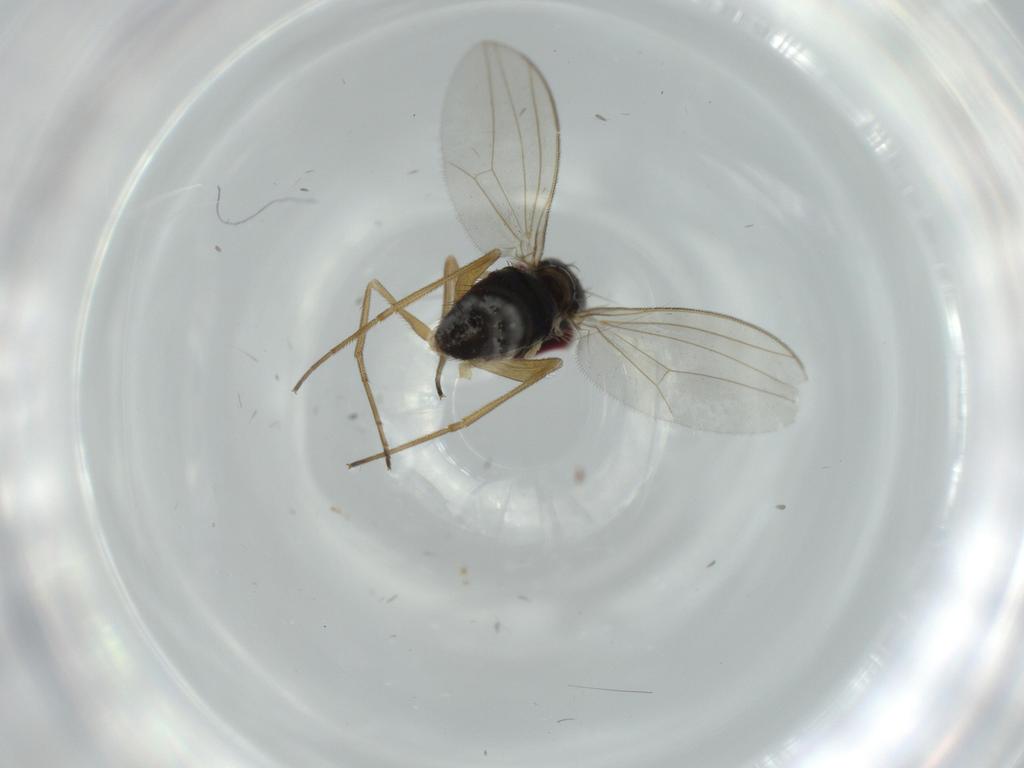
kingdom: Animalia
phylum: Arthropoda
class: Insecta
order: Diptera
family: Dolichopodidae
